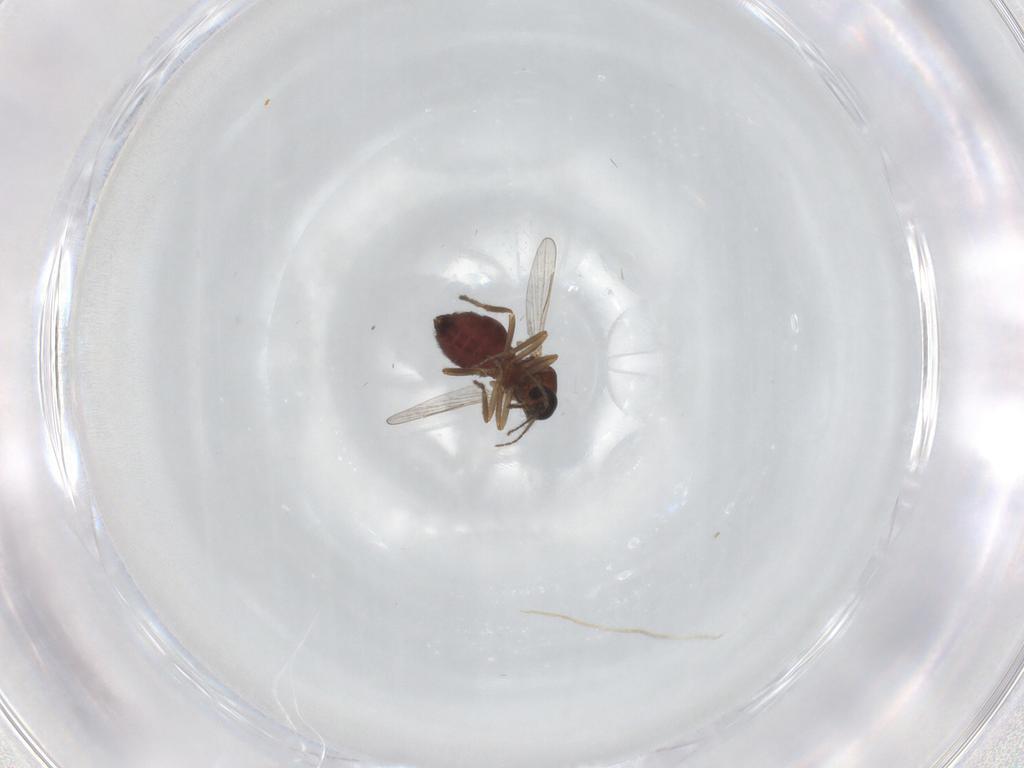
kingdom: Animalia
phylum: Arthropoda
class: Insecta
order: Diptera
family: Ceratopogonidae
